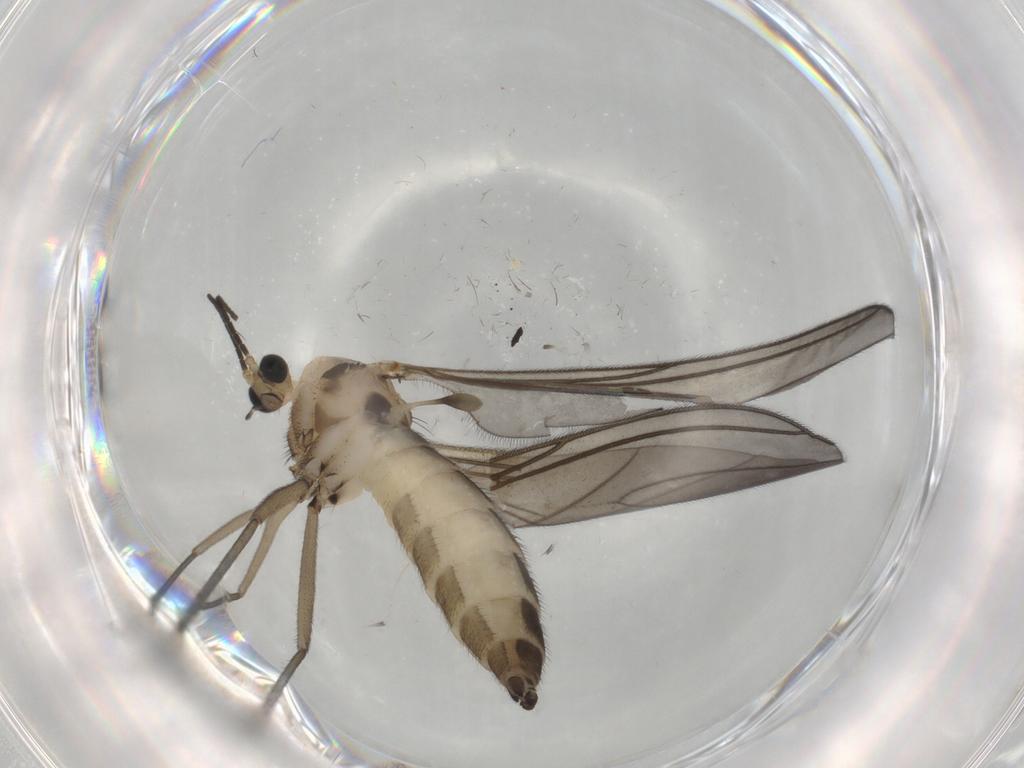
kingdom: Animalia
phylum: Arthropoda
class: Insecta
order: Diptera
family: Sciaridae
